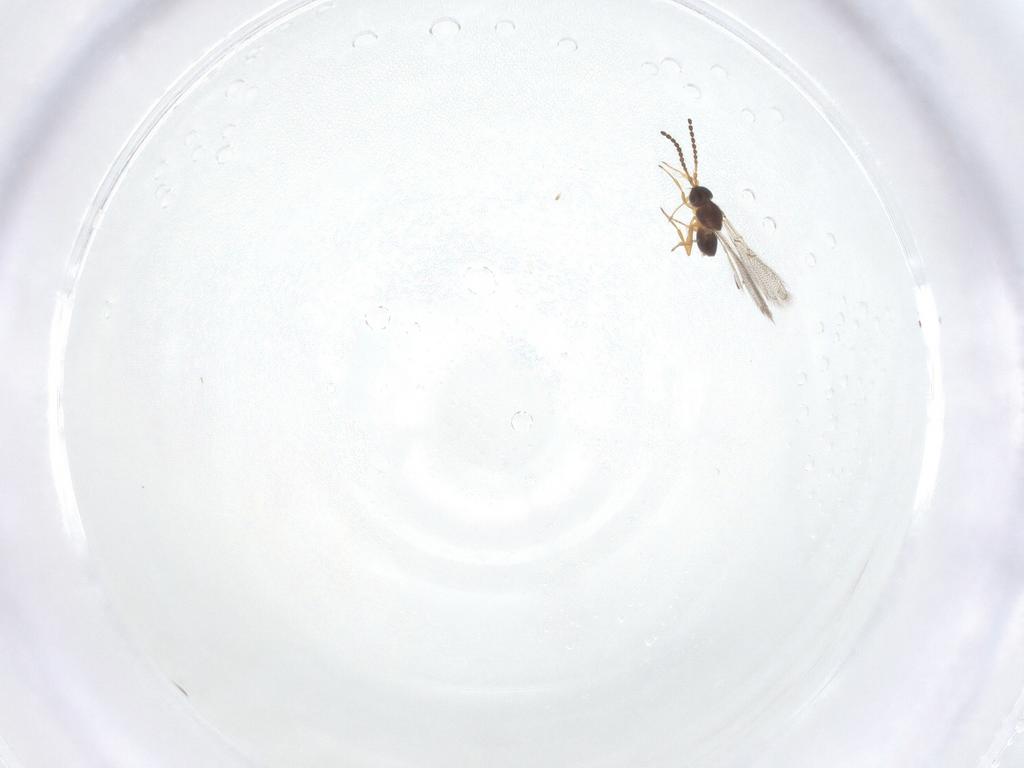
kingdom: Animalia
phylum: Arthropoda
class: Insecta
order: Hymenoptera
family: Figitidae
